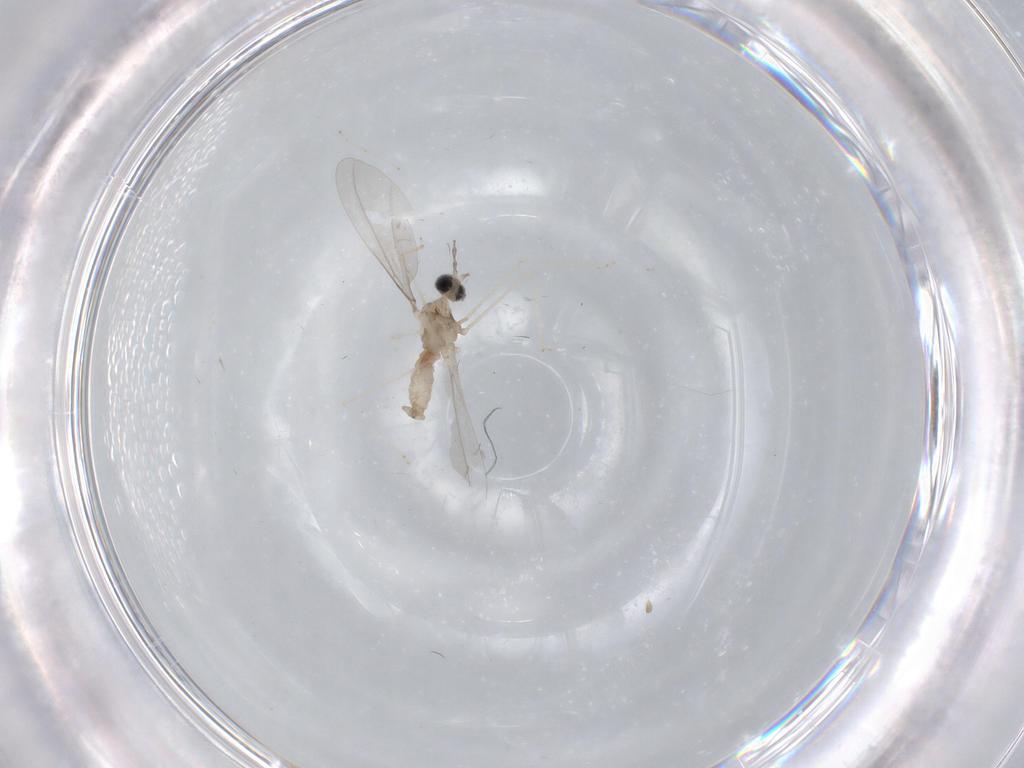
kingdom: Animalia
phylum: Arthropoda
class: Insecta
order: Diptera
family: Cecidomyiidae
